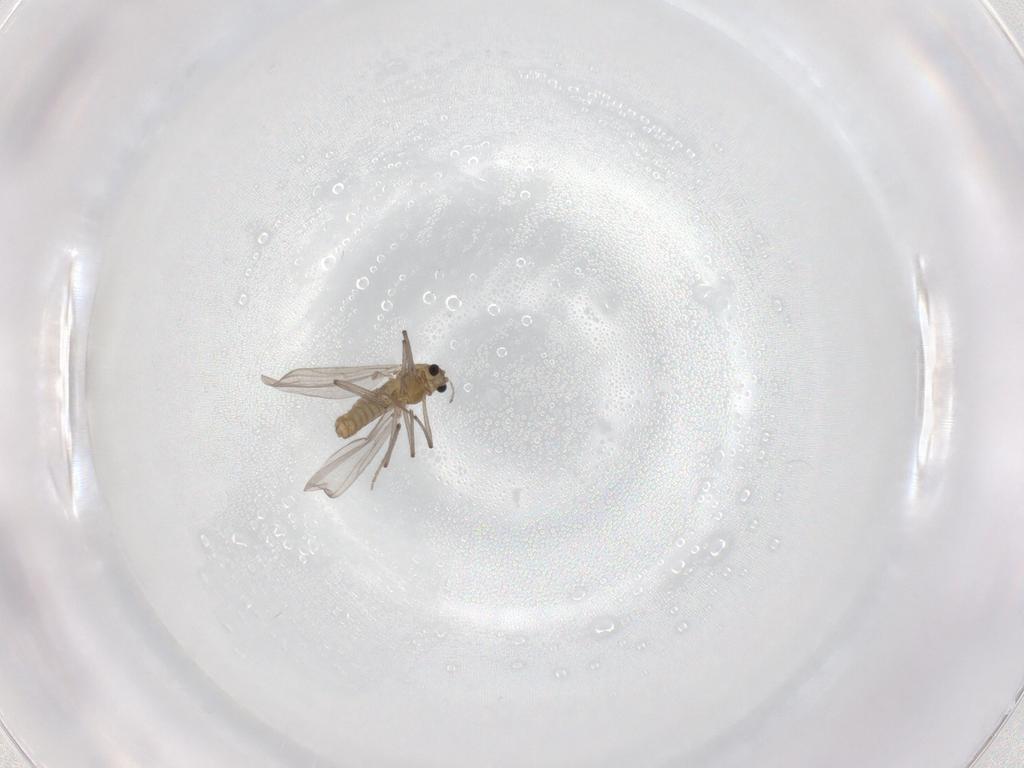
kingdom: Animalia
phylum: Arthropoda
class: Insecta
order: Diptera
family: Chironomidae
